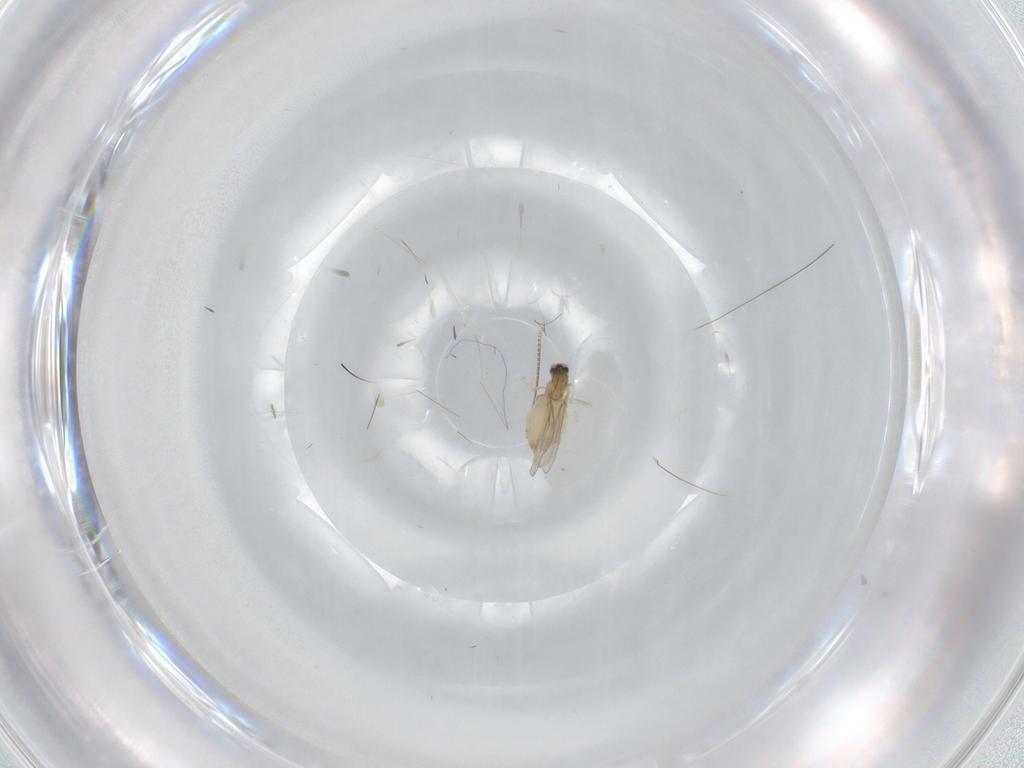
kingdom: Animalia
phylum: Arthropoda
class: Insecta
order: Diptera
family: Cecidomyiidae
